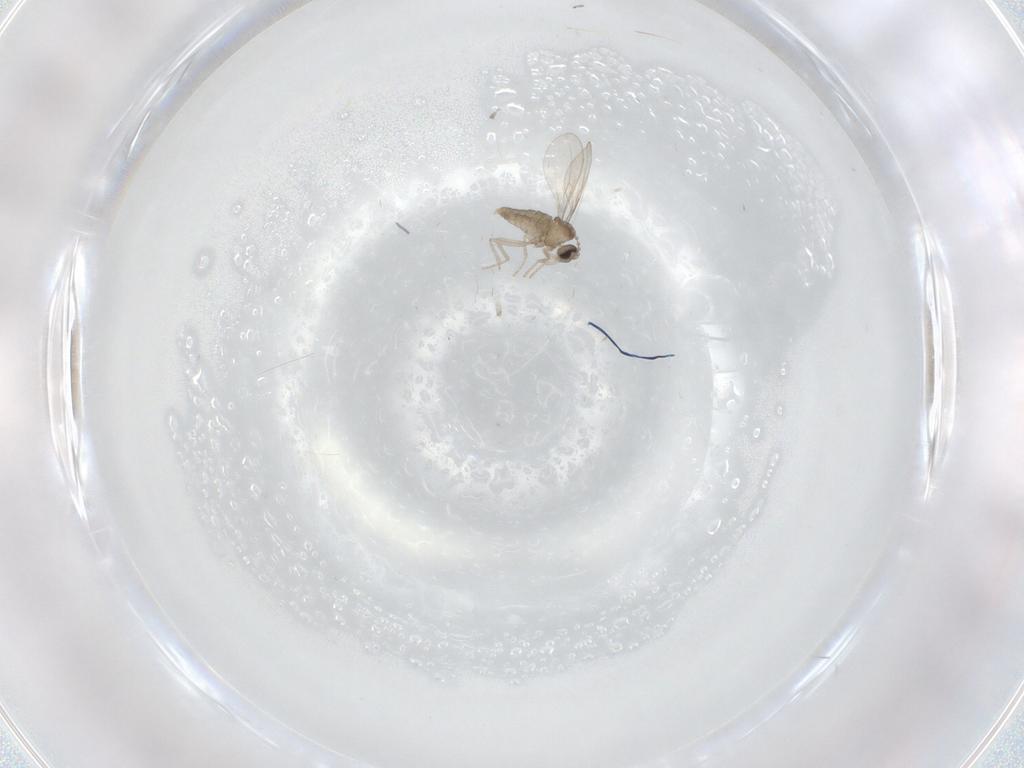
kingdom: Animalia
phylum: Arthropoda
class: Insecta
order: Diptera
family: Cecidomyiidae
